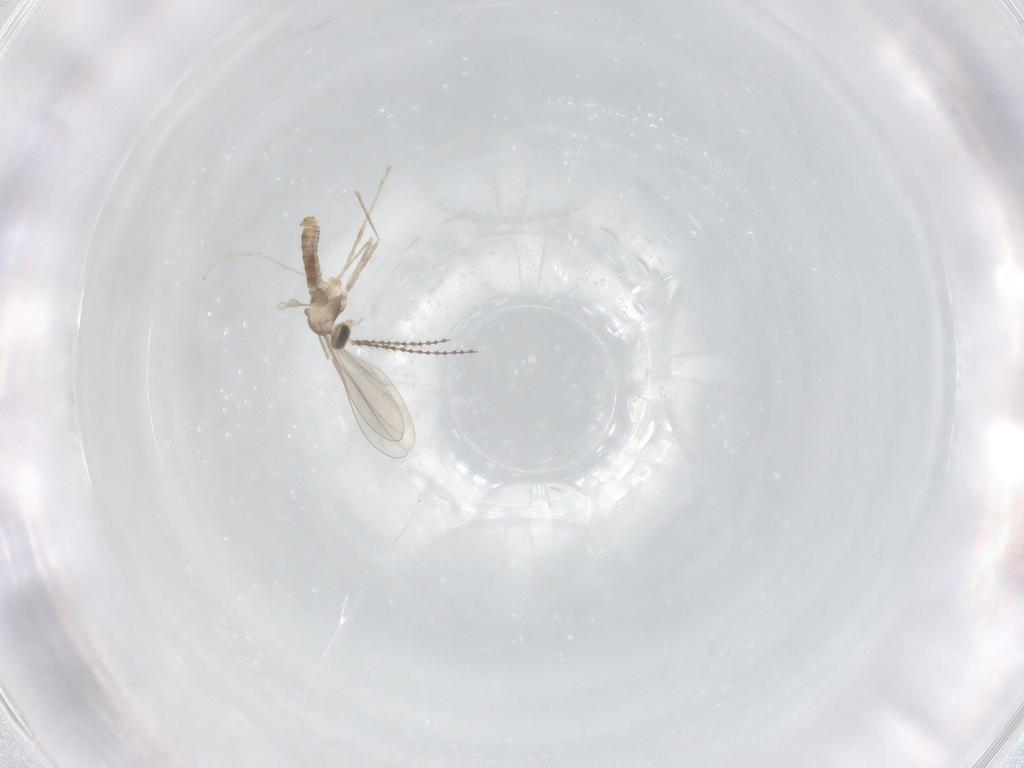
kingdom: Animalia
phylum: Arthropoda
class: Insecta
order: Diptera
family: Cecidomyiidae
